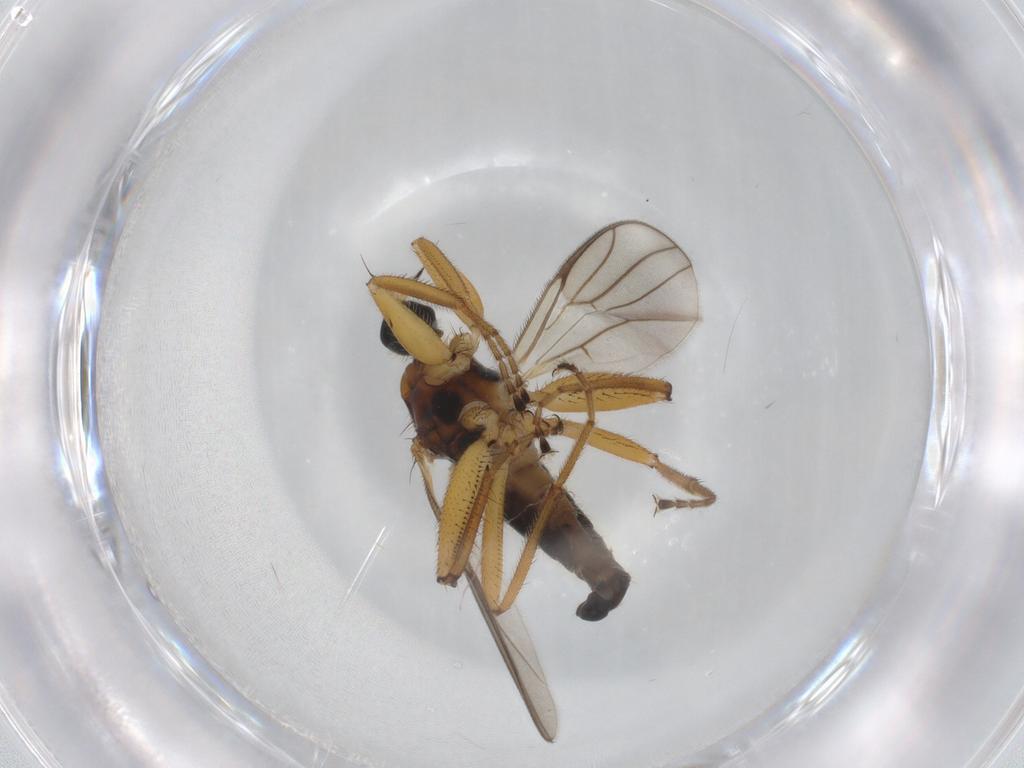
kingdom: Animalia
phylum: Arthropoda
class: Insecta
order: Diptera
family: Hybotidae
